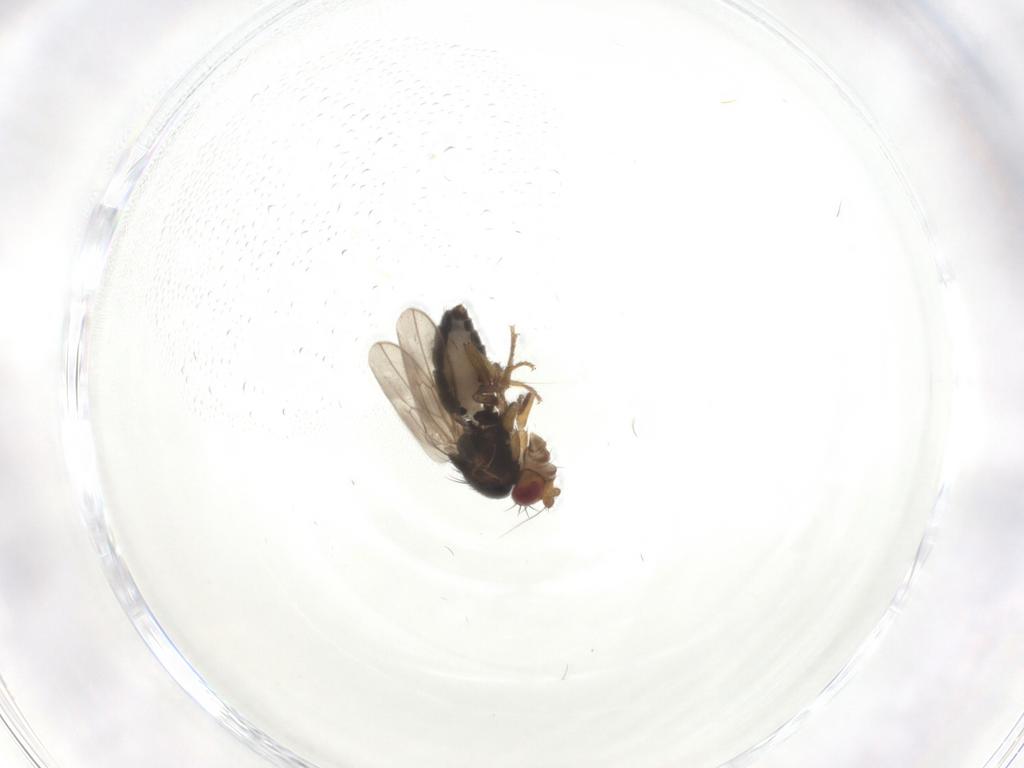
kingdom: Animalia
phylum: Arthropoda
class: Insecta
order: Diptera
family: Sphaeroceridae
